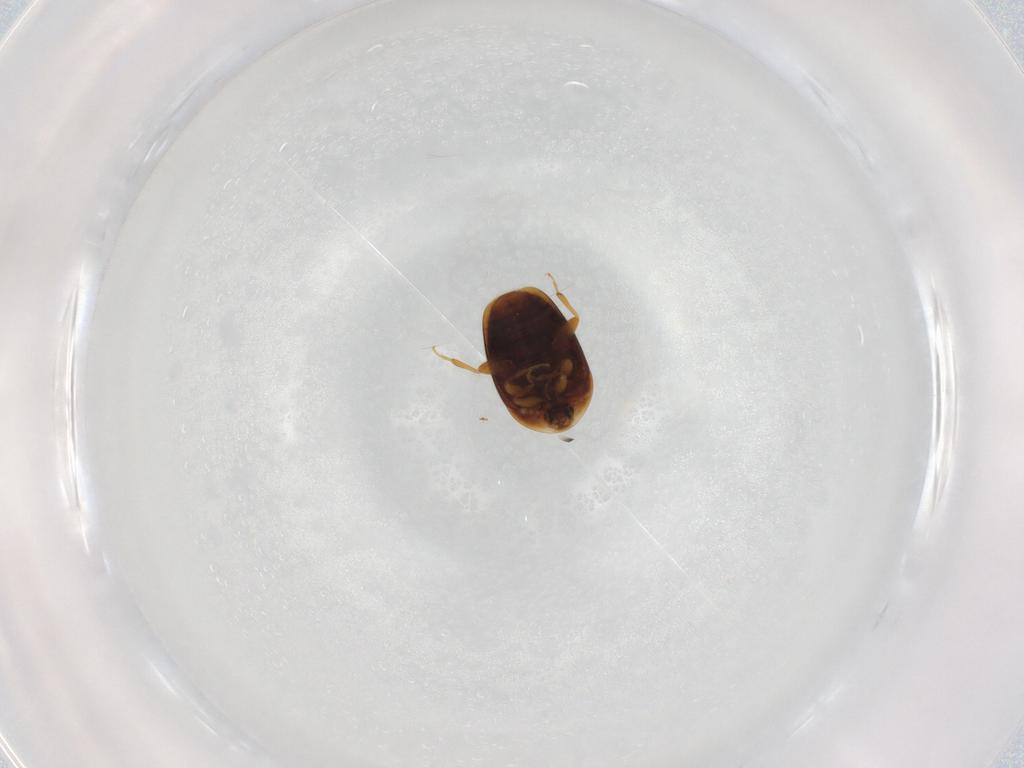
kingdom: Animalia
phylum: Arthropoda
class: Insecta
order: Coleoptera
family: Corylophidae
